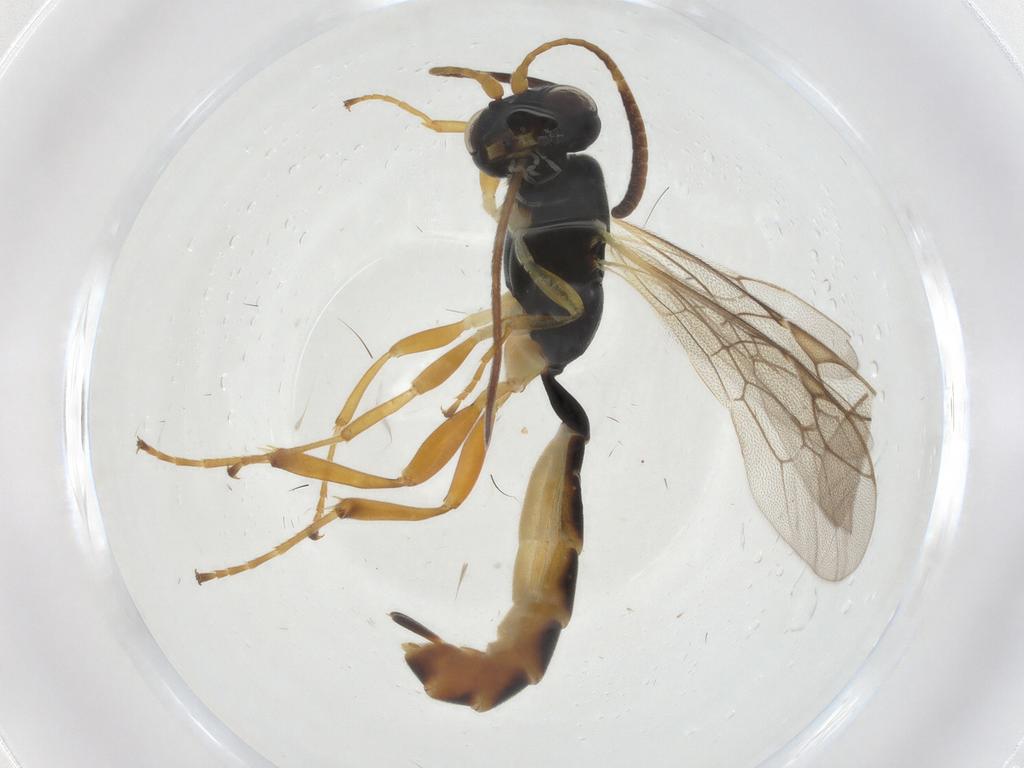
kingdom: Animalia
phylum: Arthropoda
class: Insecta
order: Hymenoptera
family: Ichneumonidae
